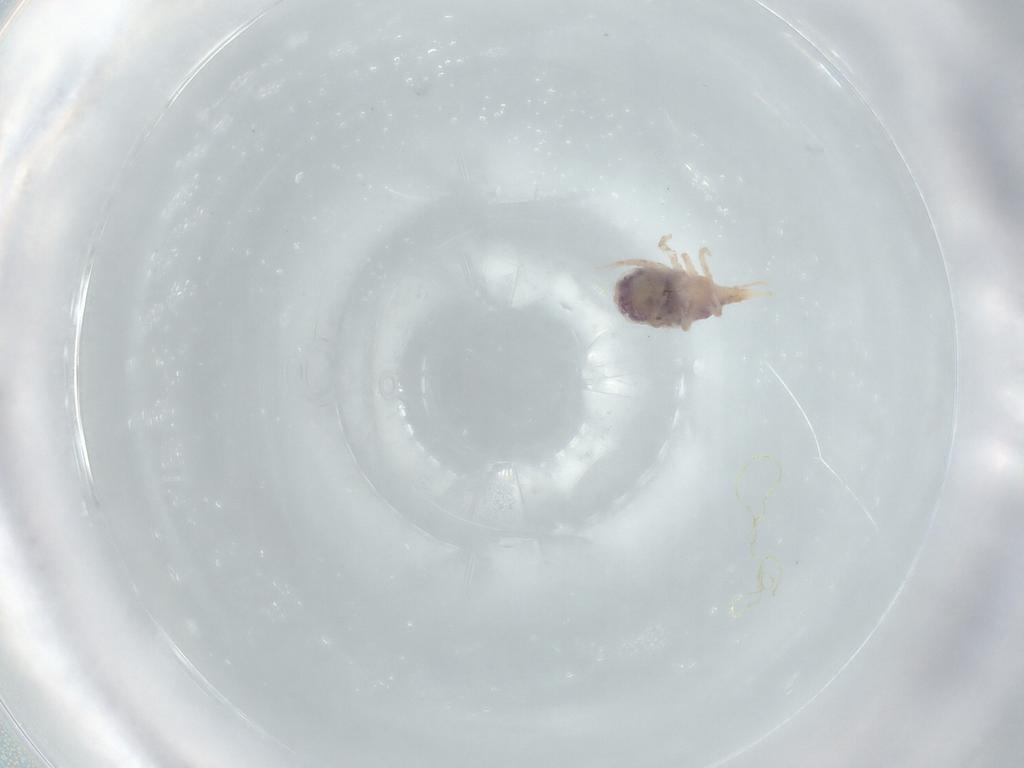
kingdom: Animalia
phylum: Arthropoda
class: Arachnida
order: Trombidiformes
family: Bdellidae
